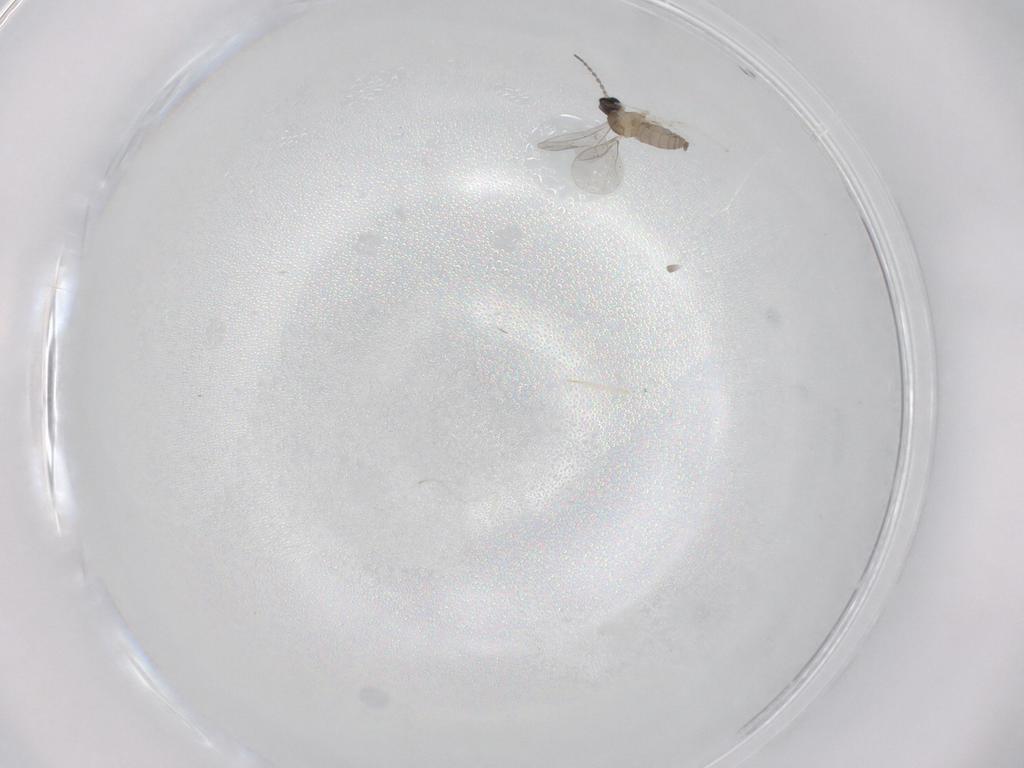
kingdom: Animalia
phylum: Arthropoda
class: Insecta
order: Diptera
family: Cecidomyiidae
